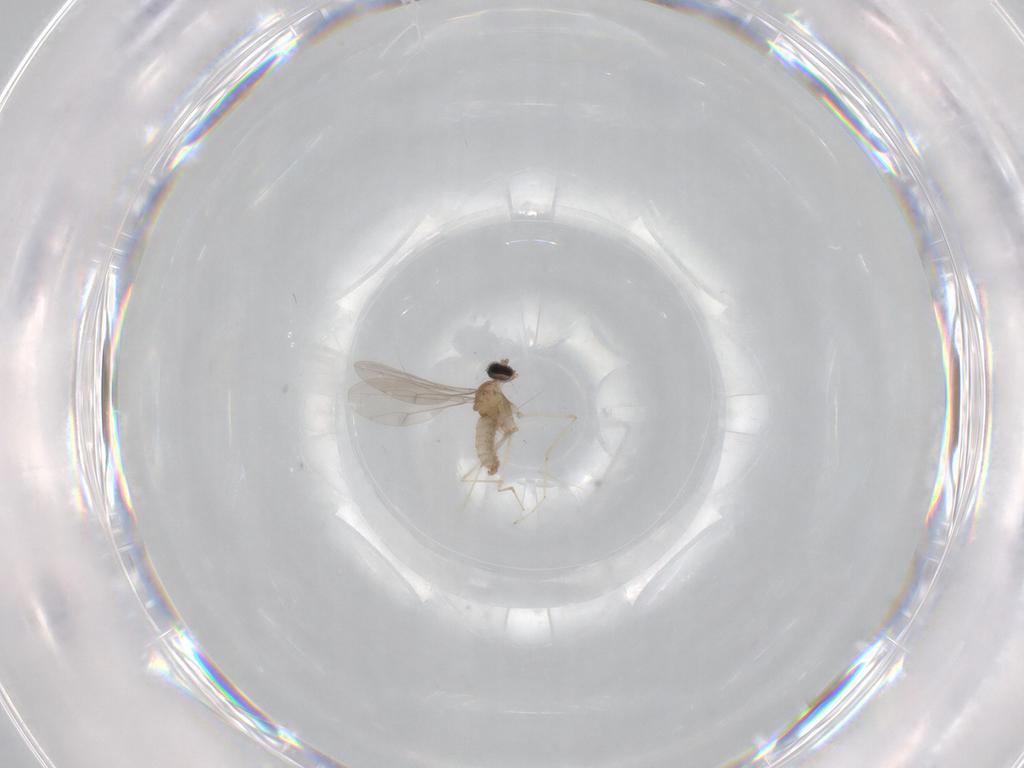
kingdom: Animalia
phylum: Arthropoda
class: Insecta
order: Diptera
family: Cecidomyiidae
